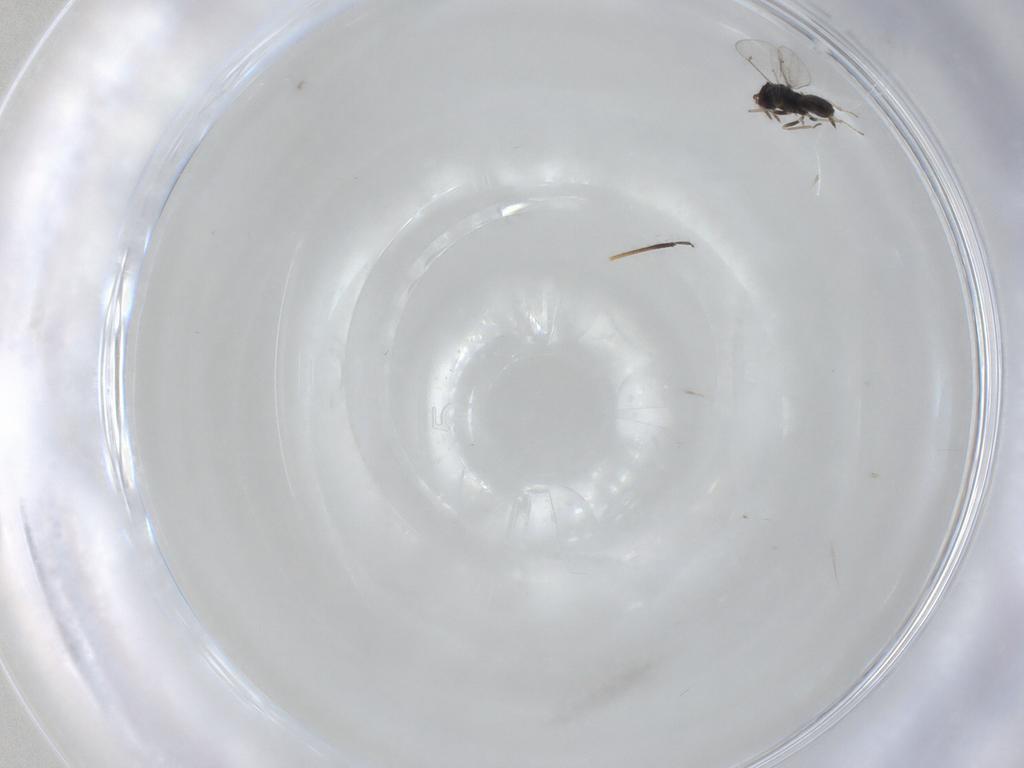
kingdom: Animalia
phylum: Arthropoda
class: Insecta
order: Hymenoptera
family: Eulophidae
